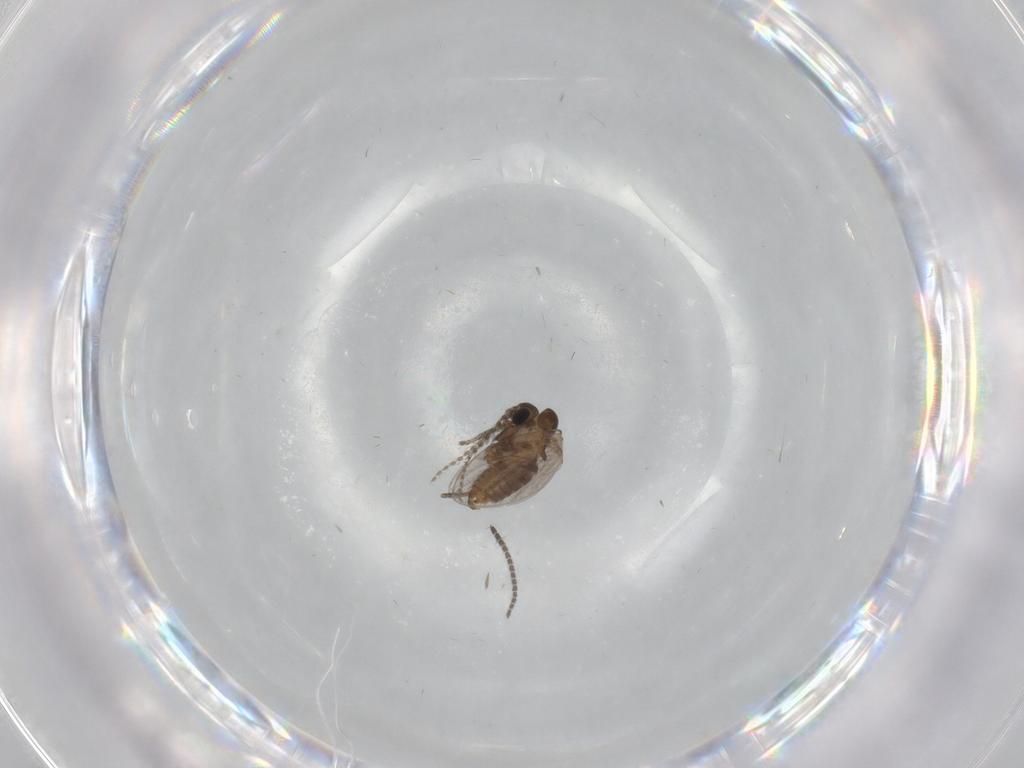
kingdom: Animalia
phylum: Arthropoda
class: Insecta
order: Diptera
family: Sciaridae
